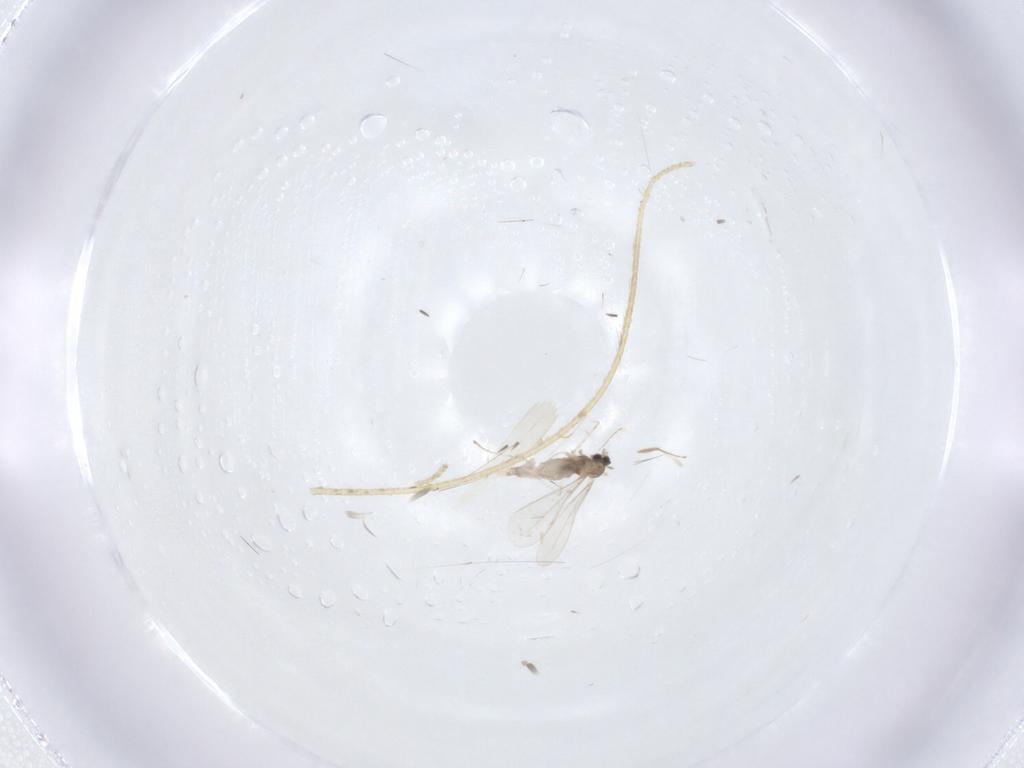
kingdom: Animalia
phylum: Arthropoda
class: Insecta
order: Diptera
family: Cecidomyiidae
